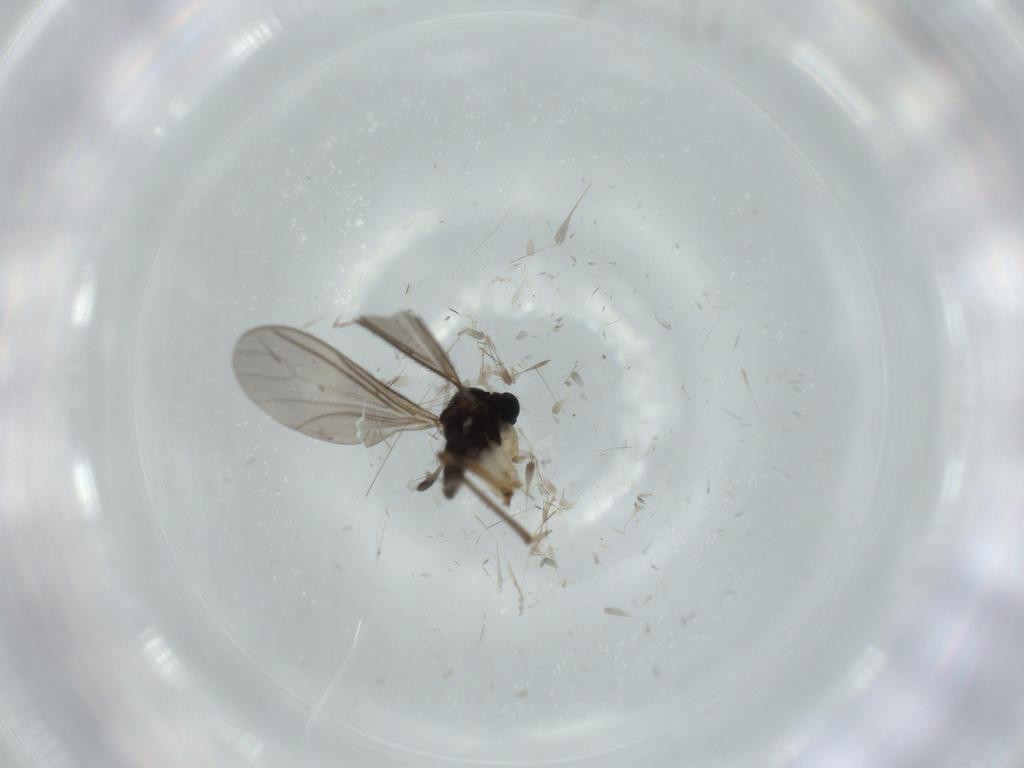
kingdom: Animalia
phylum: Arthropoda
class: Insecta
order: Diptera
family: Sciaridae
